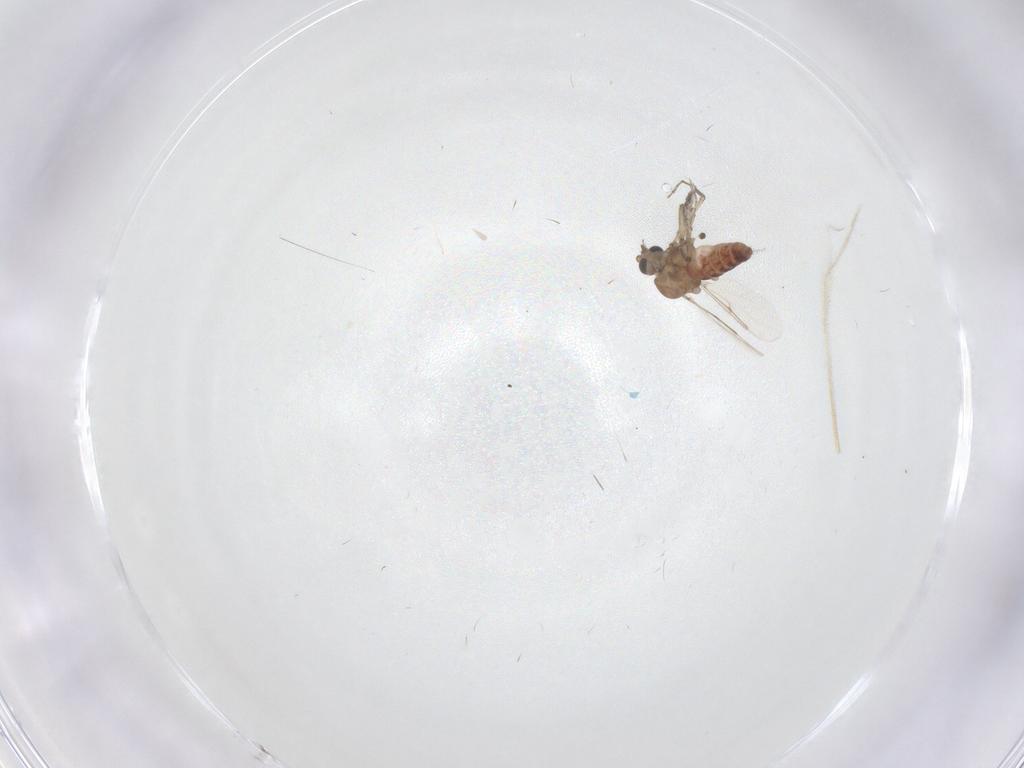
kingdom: Animalia
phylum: Arthropoda
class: Insecta
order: Diptera
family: Ceratopogonidae
